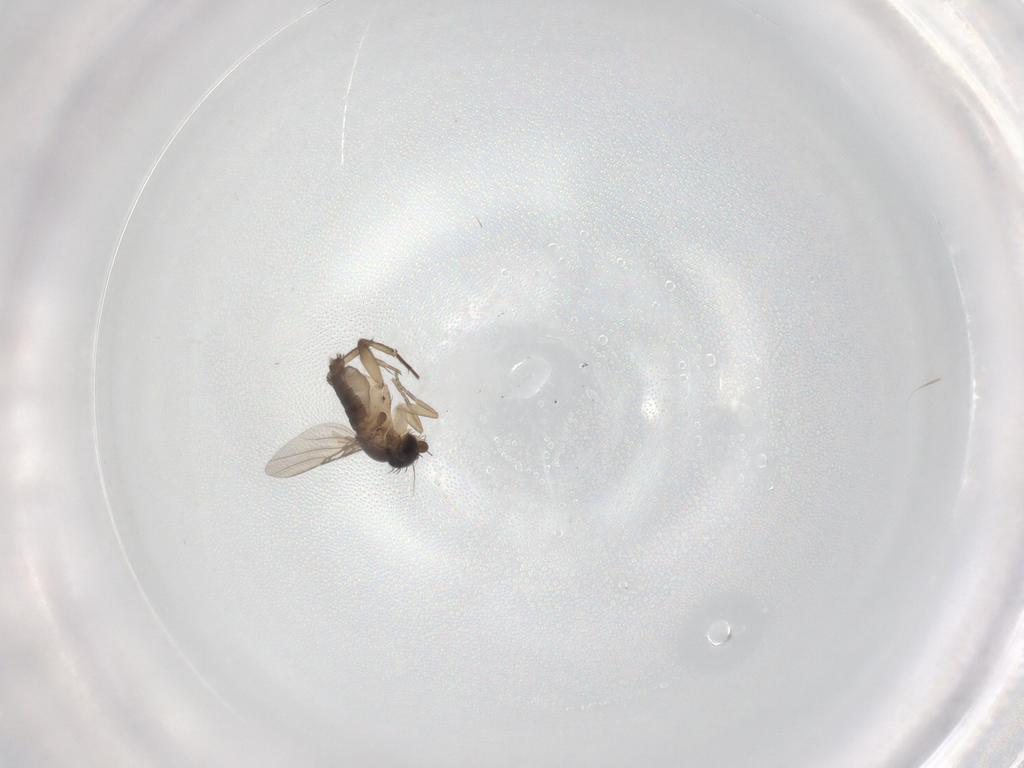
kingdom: Animalia
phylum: Arthropoda
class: Insecta
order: Diptera
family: Phoridae
